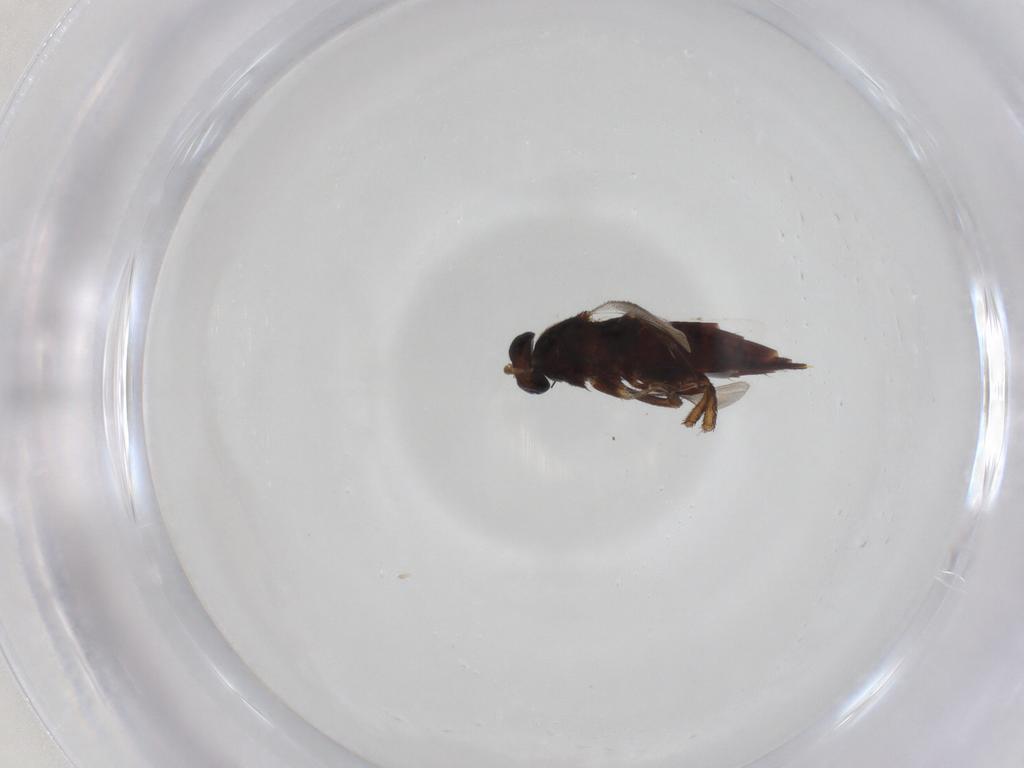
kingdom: Animalia
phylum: Arthropoda
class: Insecta
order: Hymenoptera
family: Eulophidae
